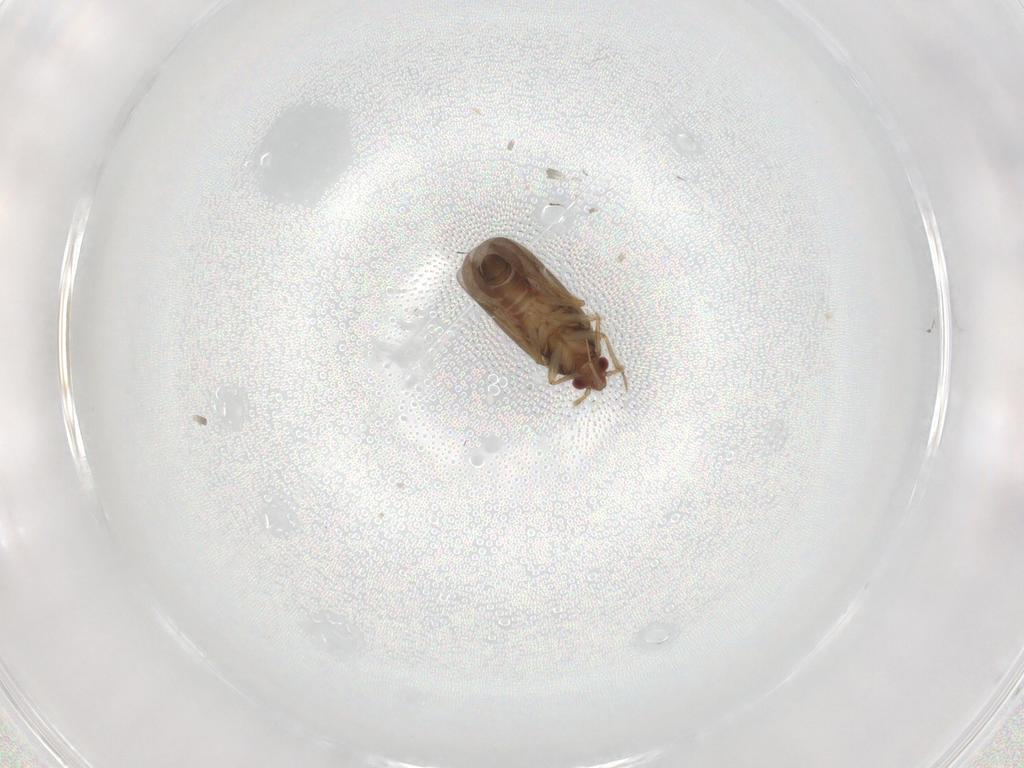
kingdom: Animalia
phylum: Arthropoda
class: Insecta
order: Hemiptera
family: Cicadellidae
